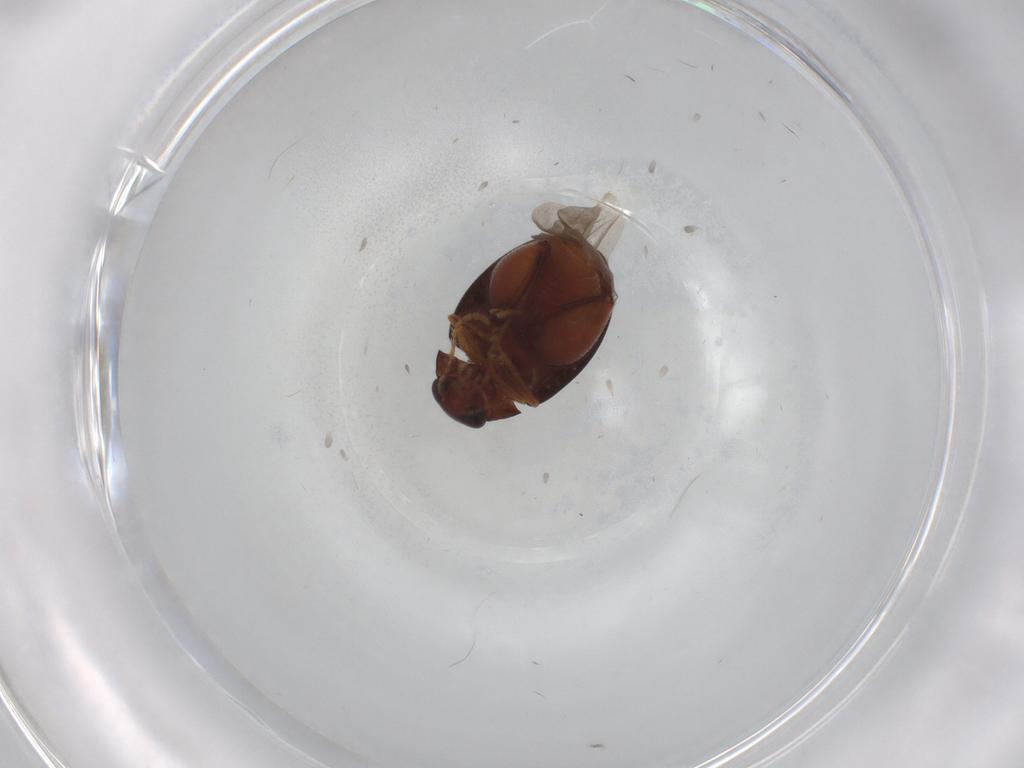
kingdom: Animalia
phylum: Arthropoda
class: Insecta
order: Coleoptera
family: Chrysomelidae
